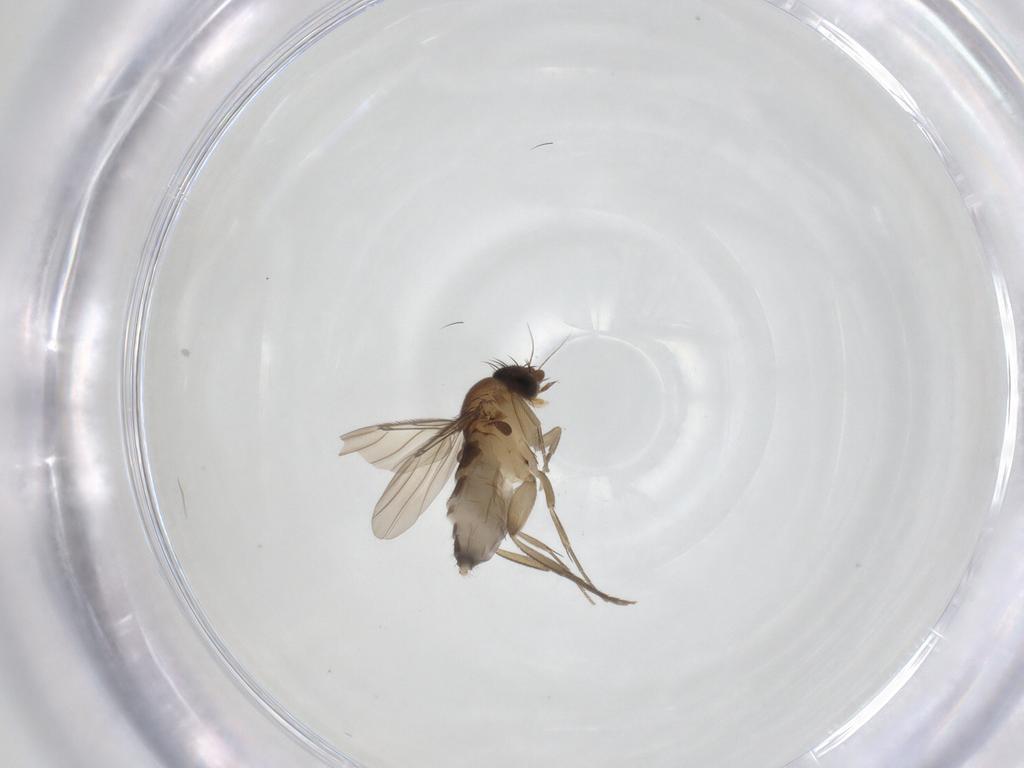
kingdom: Animalia
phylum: Arthropoda
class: Insecta
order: Diptera
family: Phoridae
